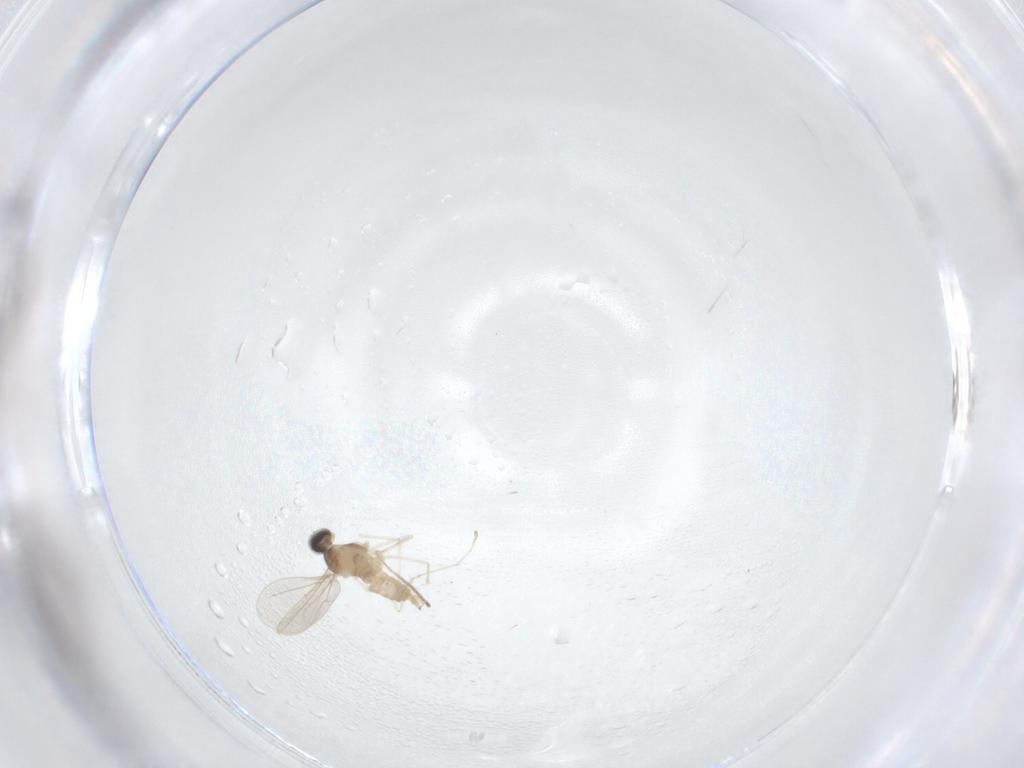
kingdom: Animalia
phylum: Arthropoda
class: Insecta
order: Diptera
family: Cecidomyiidae
